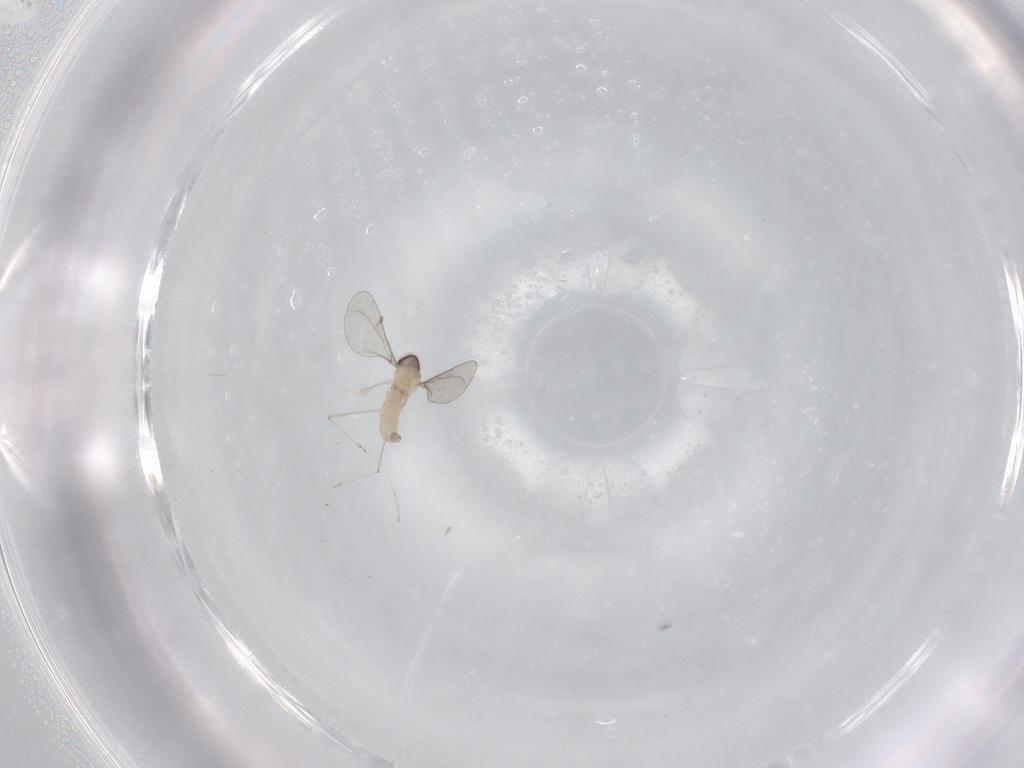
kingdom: Animalia
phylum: Arthropoda
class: Insecta
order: Diptera
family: Cecidomyiidae
